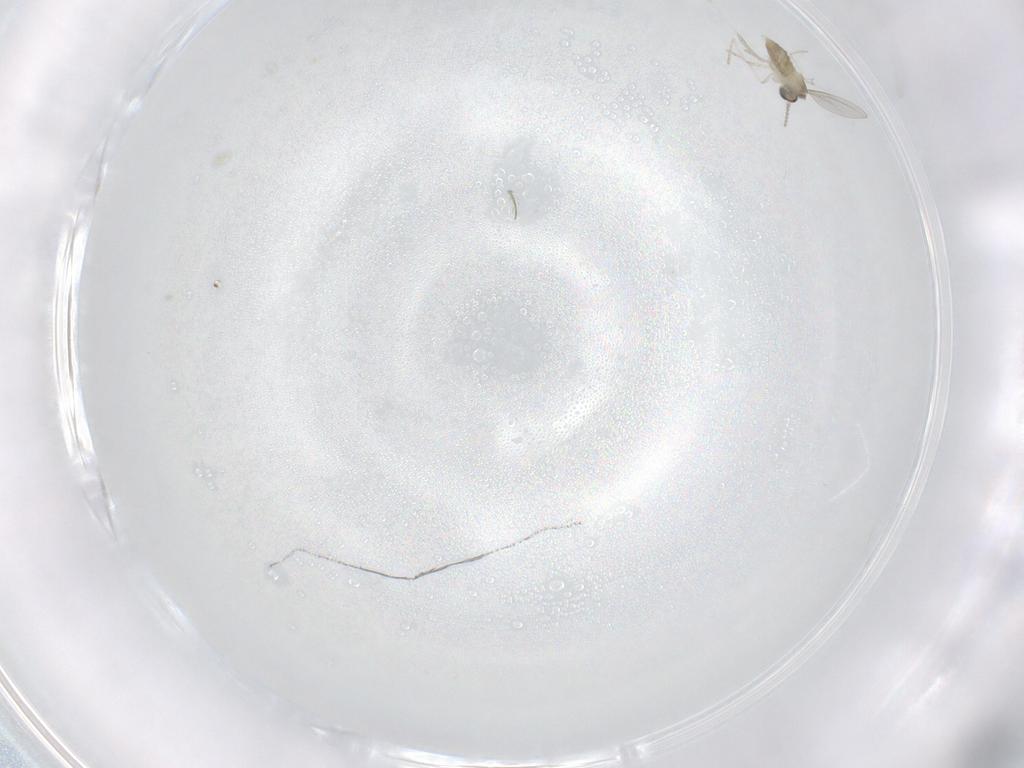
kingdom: Animalia
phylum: Arthropoda
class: Insecta
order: Diptera
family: Cecidomyiidae
